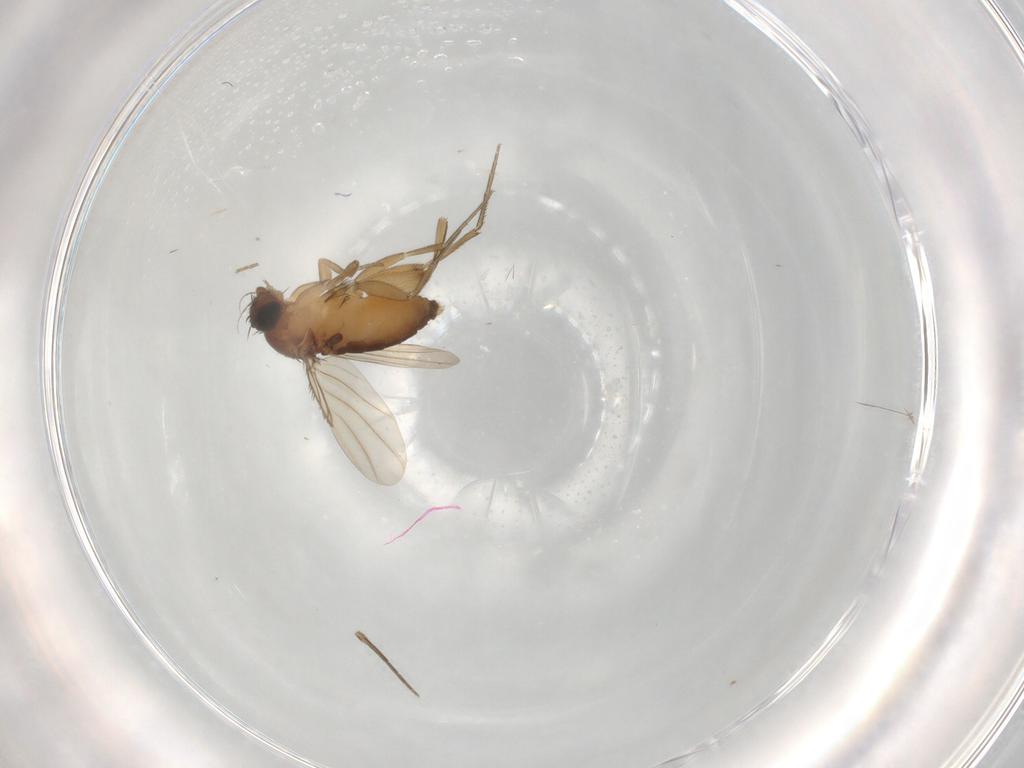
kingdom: Animalia
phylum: Arthropoda
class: Insecta
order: Diptera
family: Phoridae
